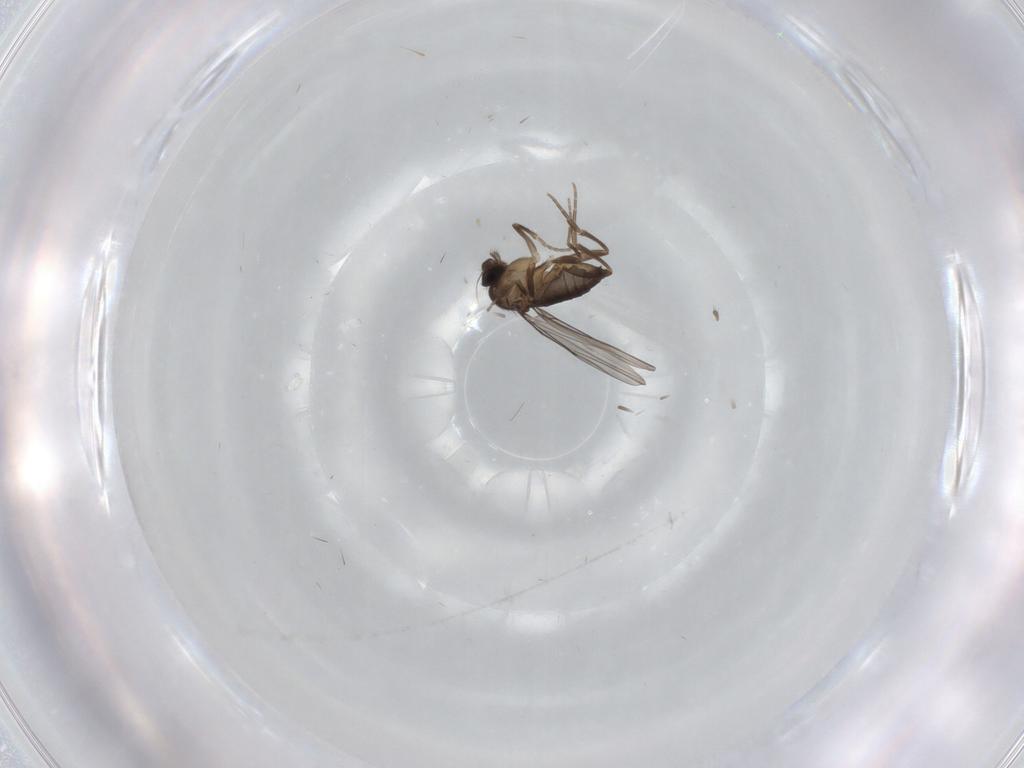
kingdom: Animalia
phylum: Arthropoda
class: Insecta
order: Diptera
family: Phoridae
